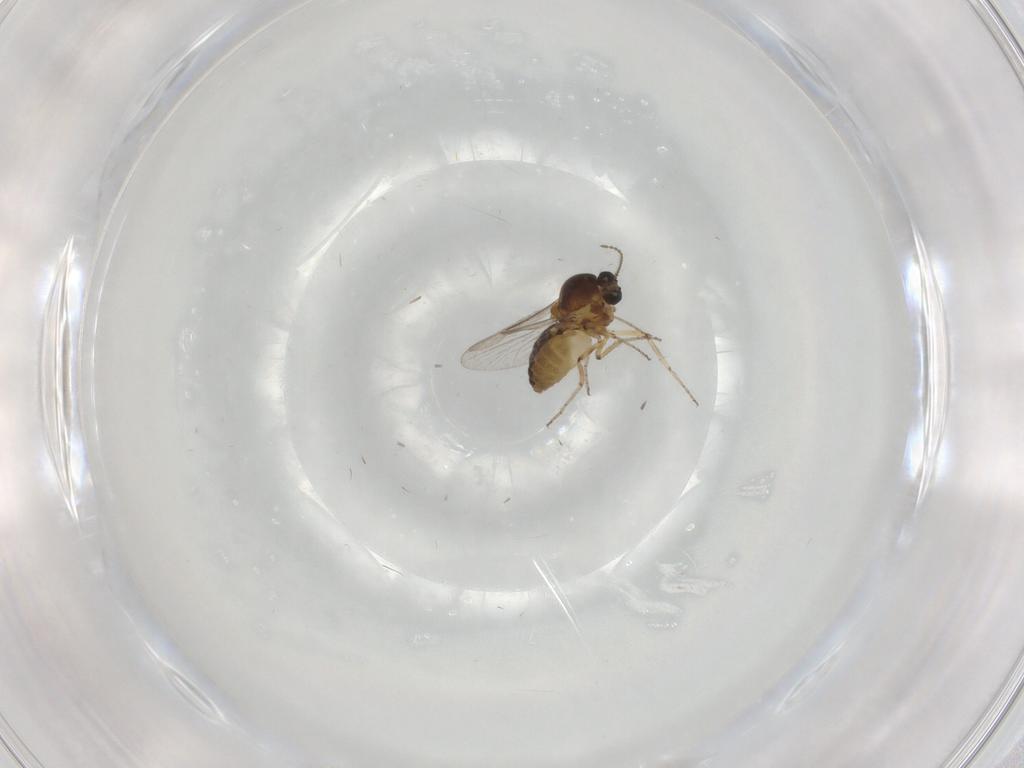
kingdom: Animalia
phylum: Arthropoda
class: Insecta
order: Diptera
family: Ceratopogonidae
